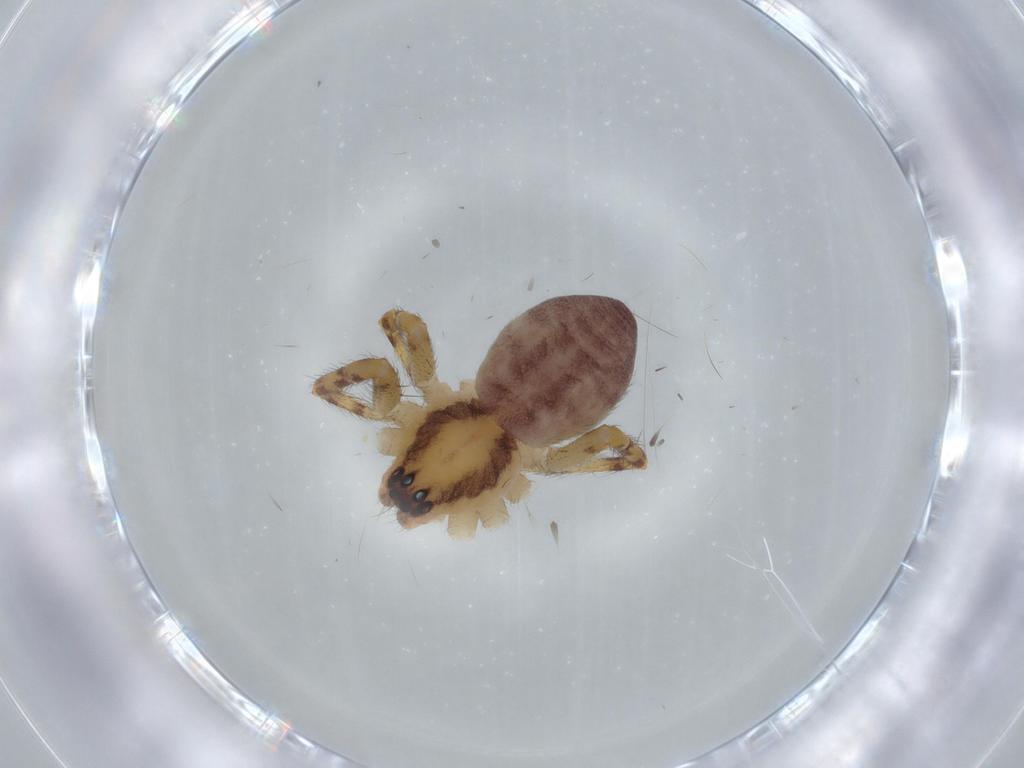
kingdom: Animalia
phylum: Arthropoda
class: Arachnida
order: Araneae
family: Corinnidae
